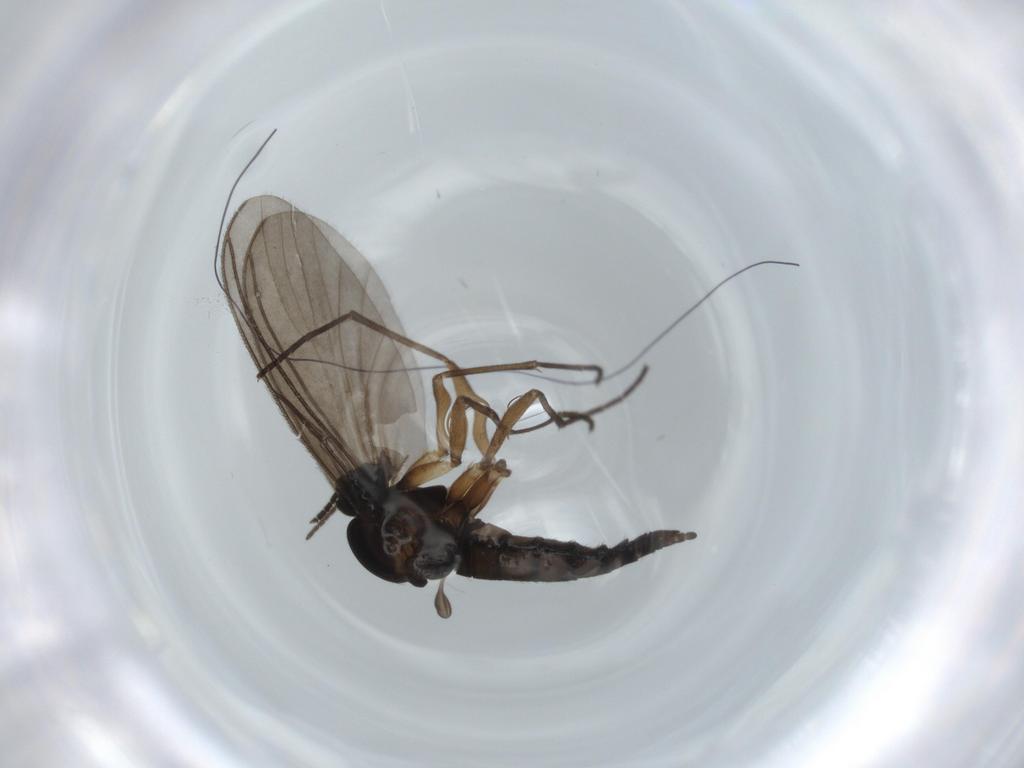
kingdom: Animalia
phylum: Arthropoda
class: Insecta
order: Diptera
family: Sciaridae
